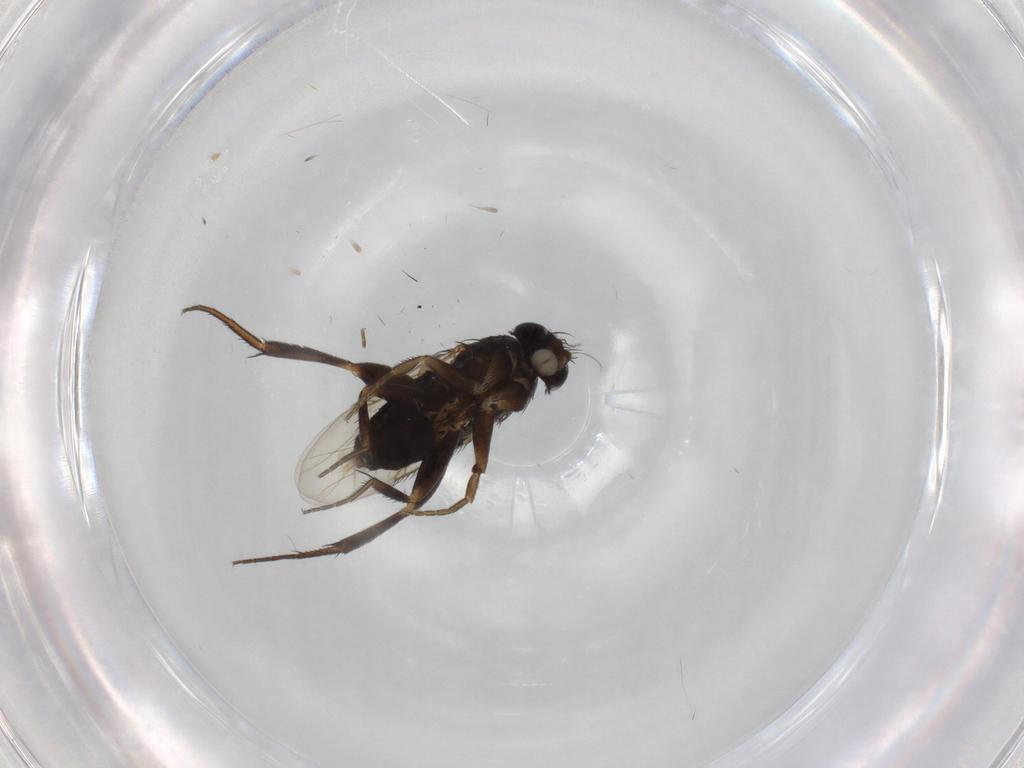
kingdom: Animalia
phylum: Arthropoda
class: Insecta
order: Diptera
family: Phoridae
